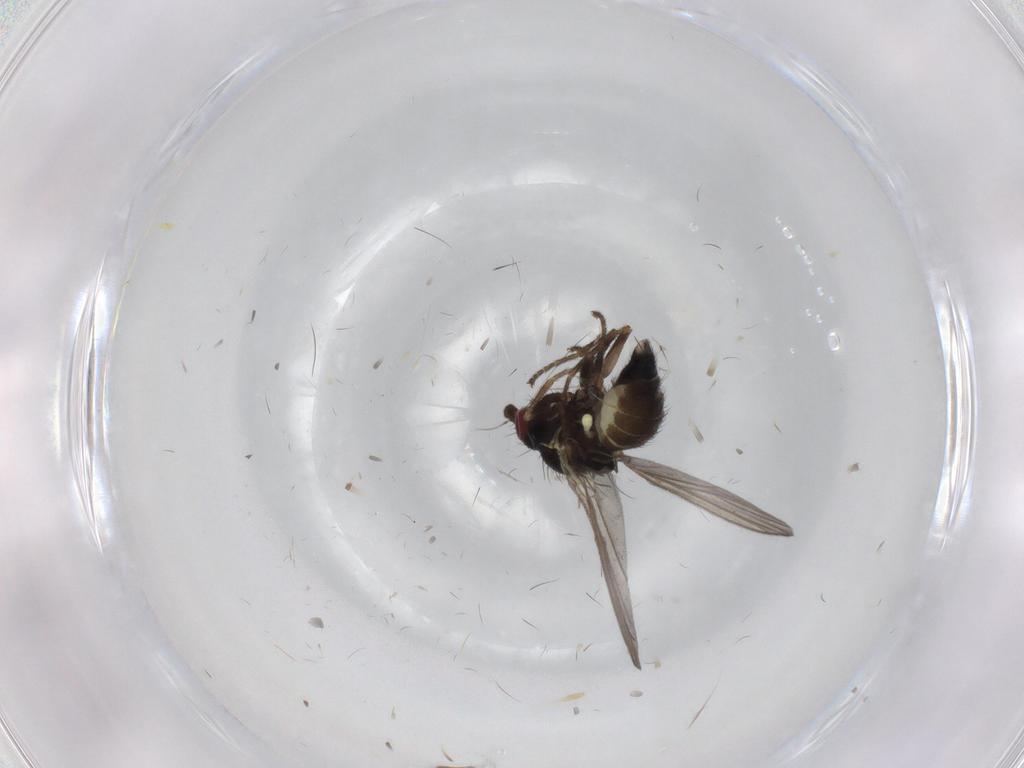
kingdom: Animalia
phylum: Arthropoda
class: Insecta
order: Diptera
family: Agromyzidae
